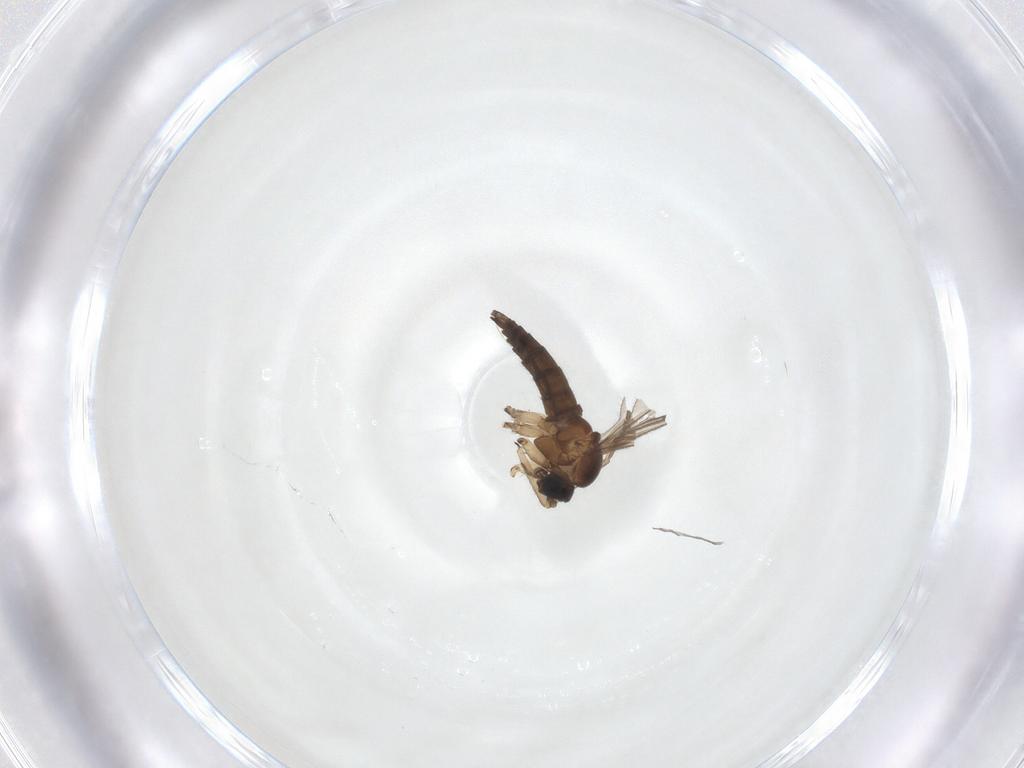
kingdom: Animalia
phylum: Arthropoda
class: Insecta
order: Diptera
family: Sciaridae
